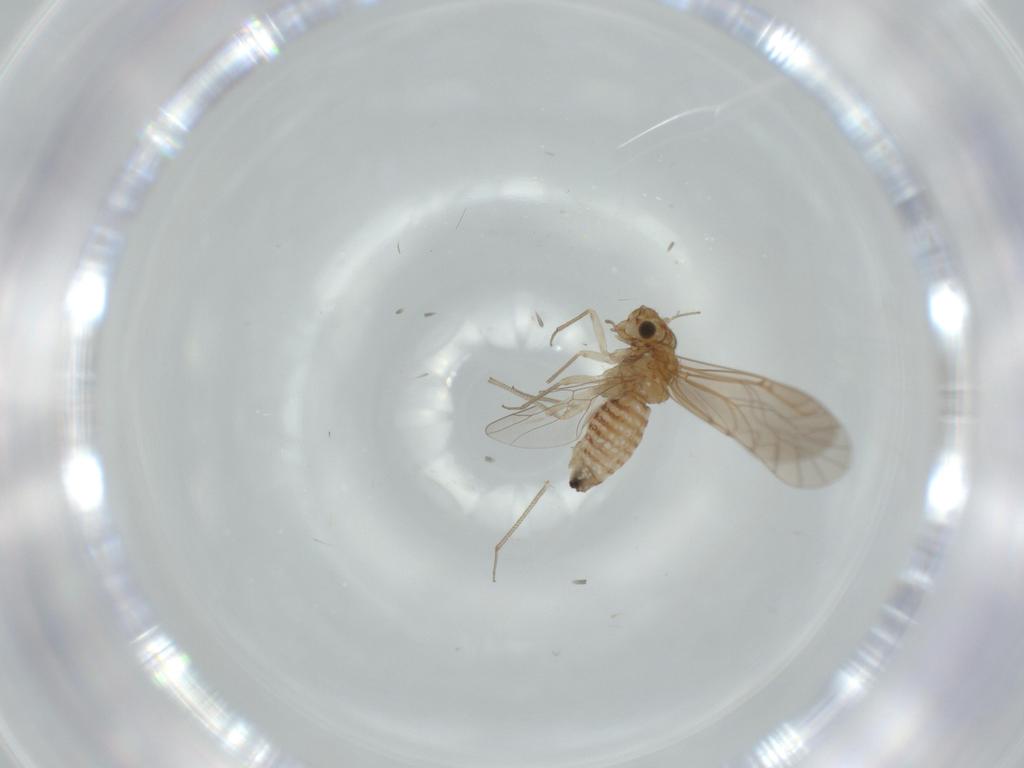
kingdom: Animalia
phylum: Arthropoda
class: Insecta
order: Psocodea
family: Lachesillidae
